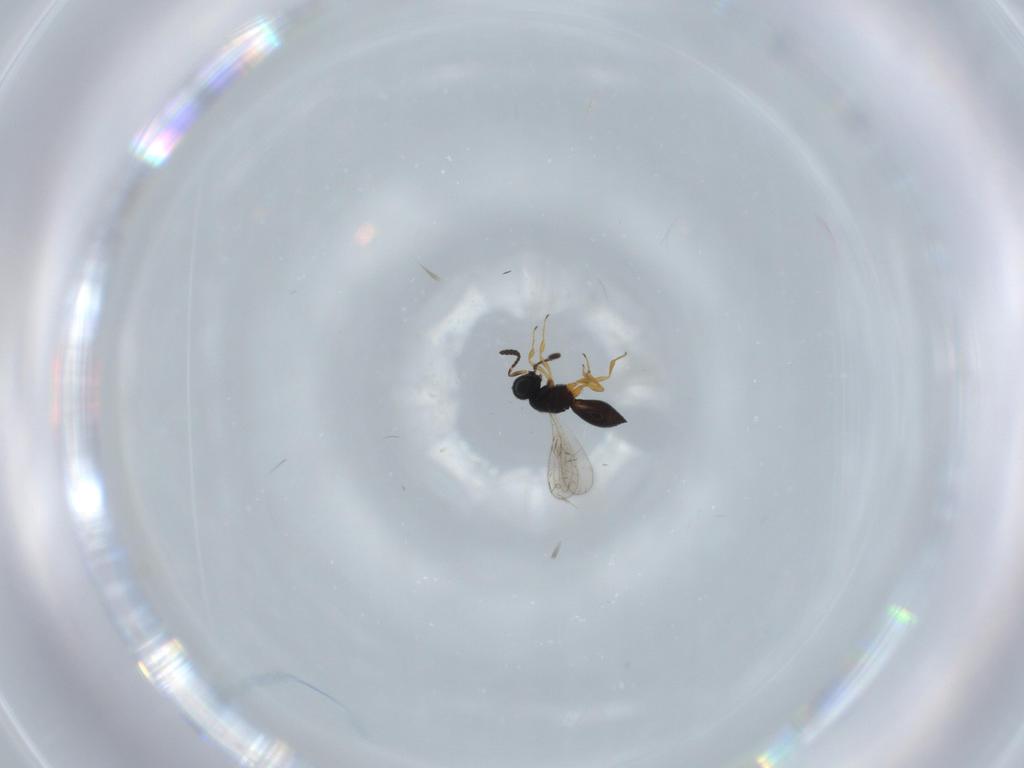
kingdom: Animalia
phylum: Arthropoda
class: Insecta
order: Hymenoptera
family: Scelionidae
